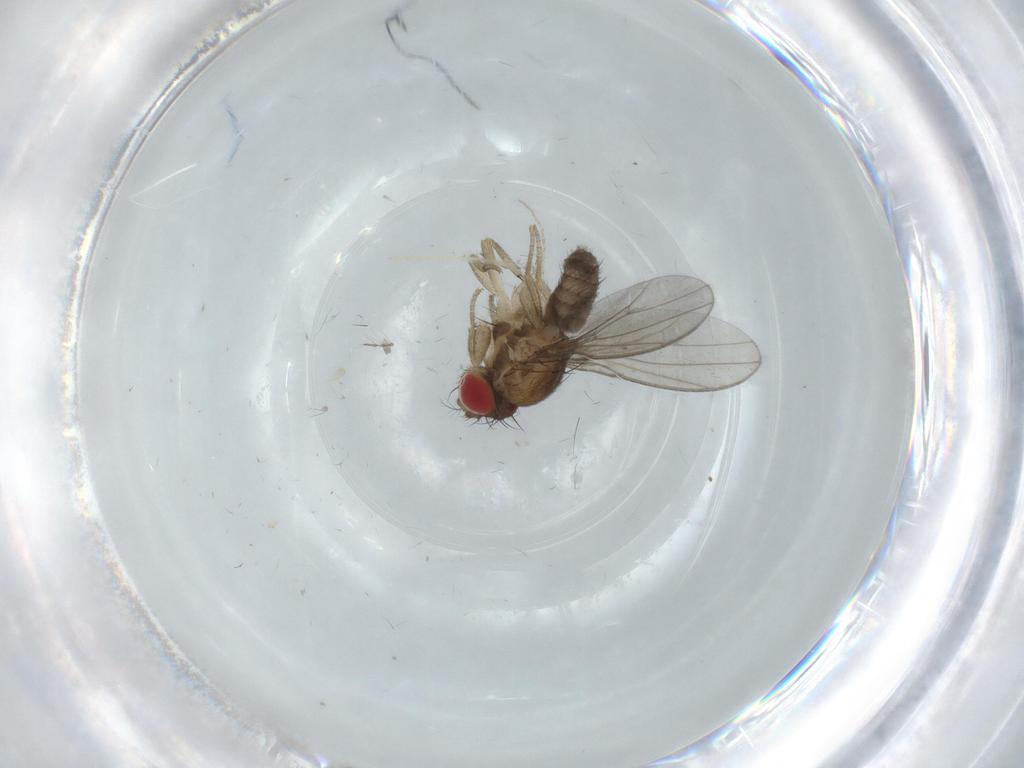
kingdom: Animalia
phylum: Arthropoda
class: Insecta
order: Diptera
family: Drosophilidae
